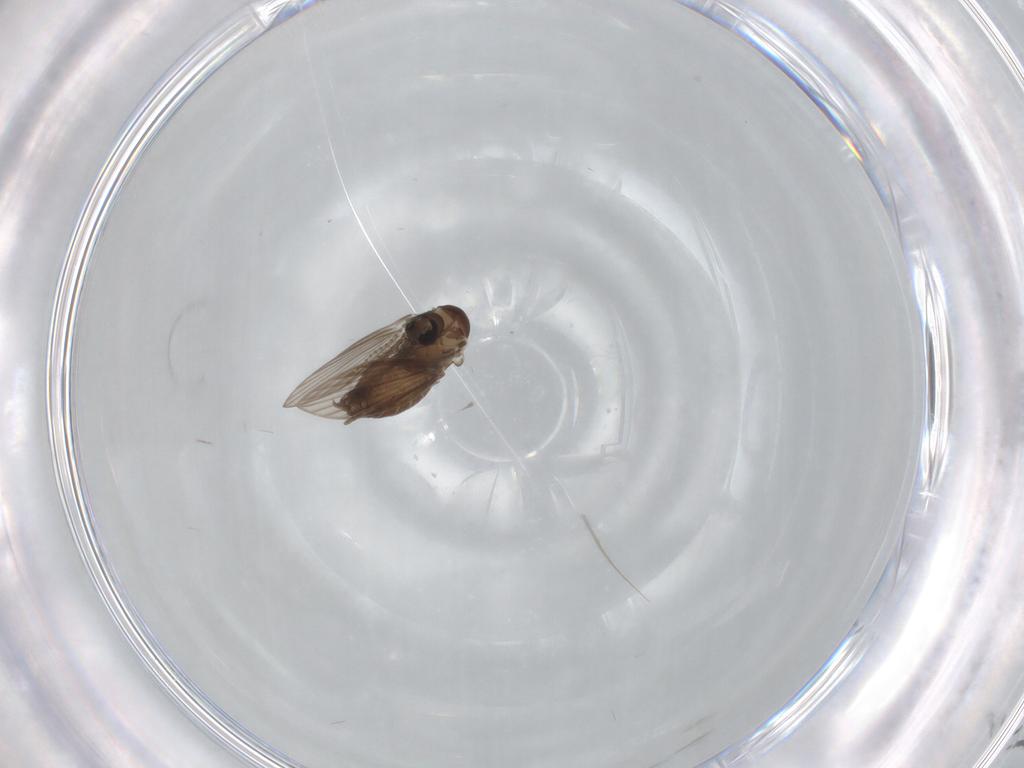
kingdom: Animalia
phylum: Arthropoda
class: Insecta
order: Diptera
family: Psychodidae
